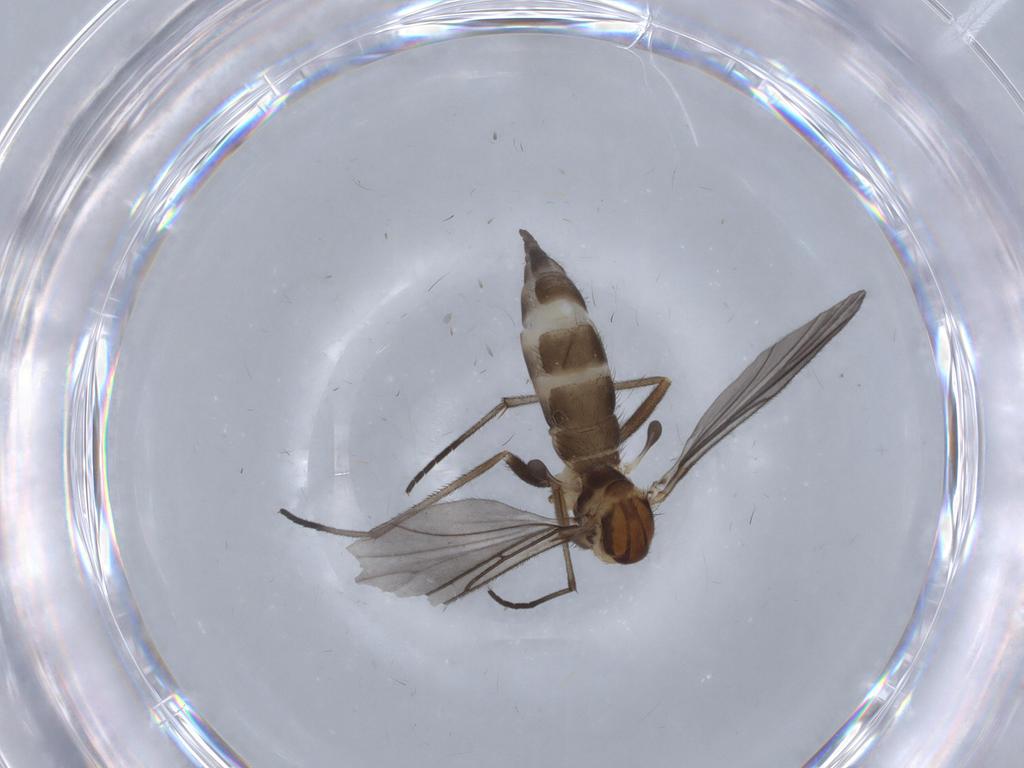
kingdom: Animalia
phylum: Arthropoda
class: Insecta
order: Diptera
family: Sciaridae
